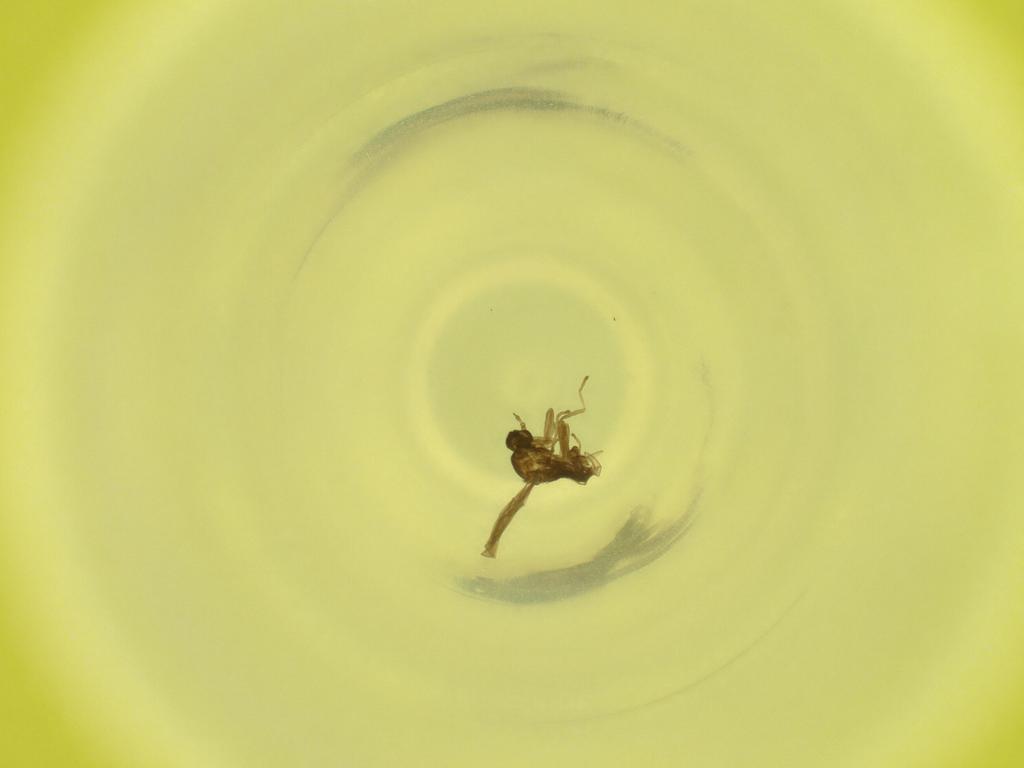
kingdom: Animalia
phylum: Arthropoda
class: Insecta
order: Diptera
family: Cecidomyiidae
